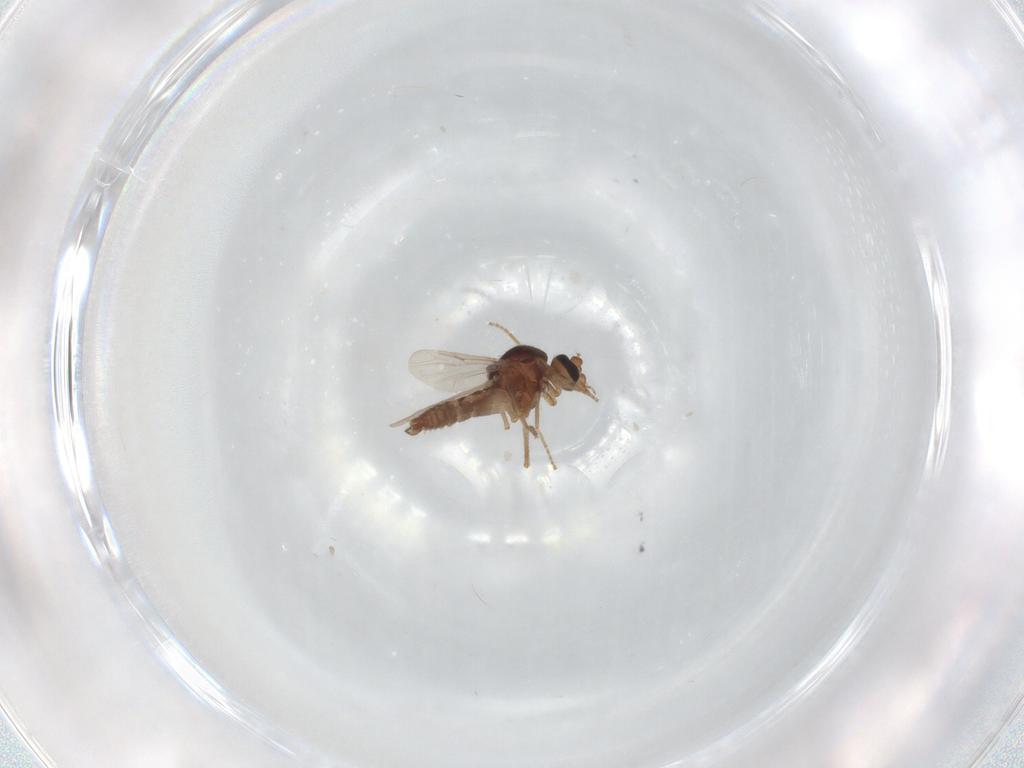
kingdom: Animalia
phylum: Arthropoda
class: Insecta
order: Diptera
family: Ceratopogonidae
